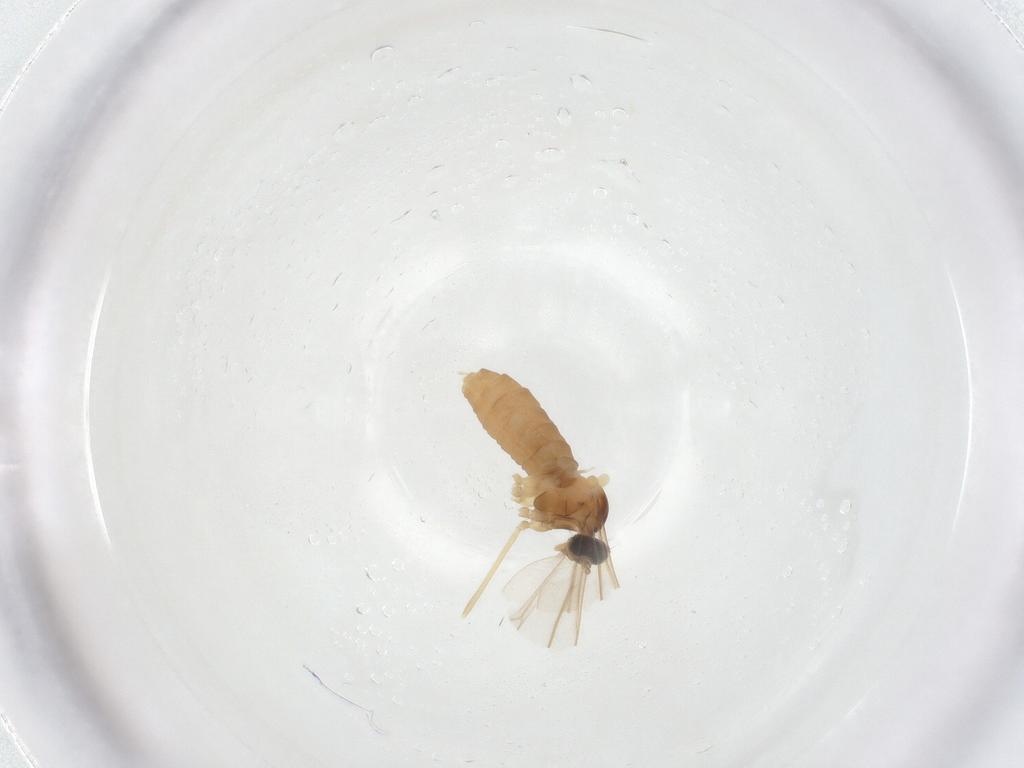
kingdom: Animalia
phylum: Arthropoda
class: Insecta
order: Diptera
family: Cecidomyiidae
